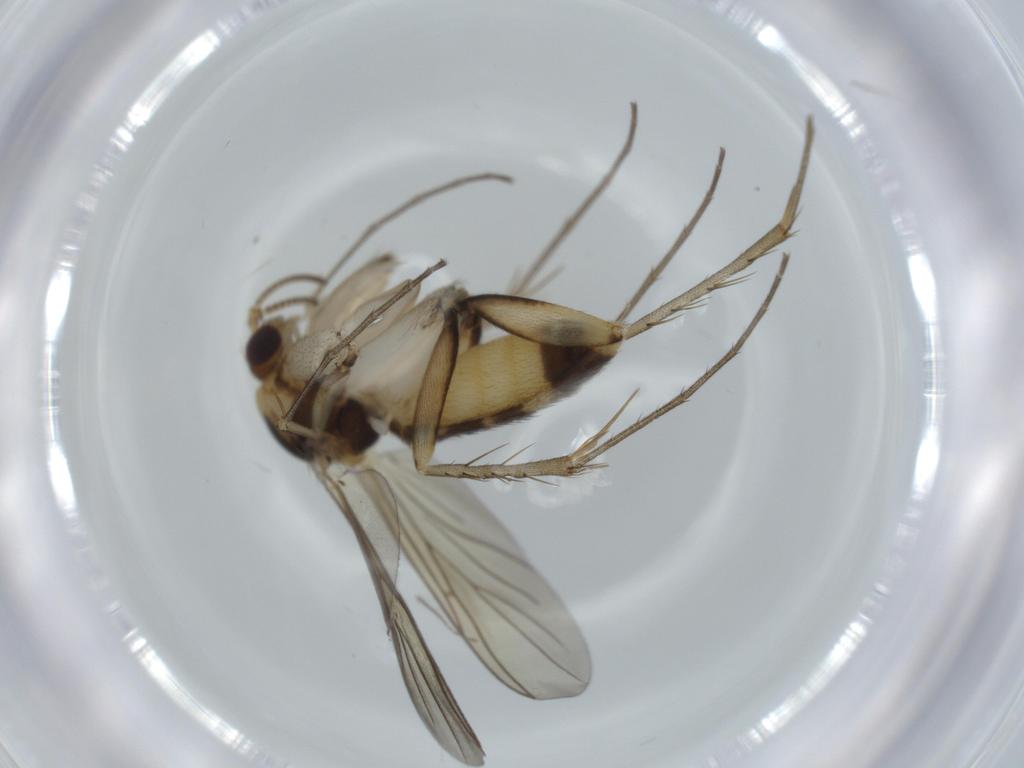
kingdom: Animalia
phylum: Arthropoda
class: Insecta
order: Diptera
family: Mycetophilidae
